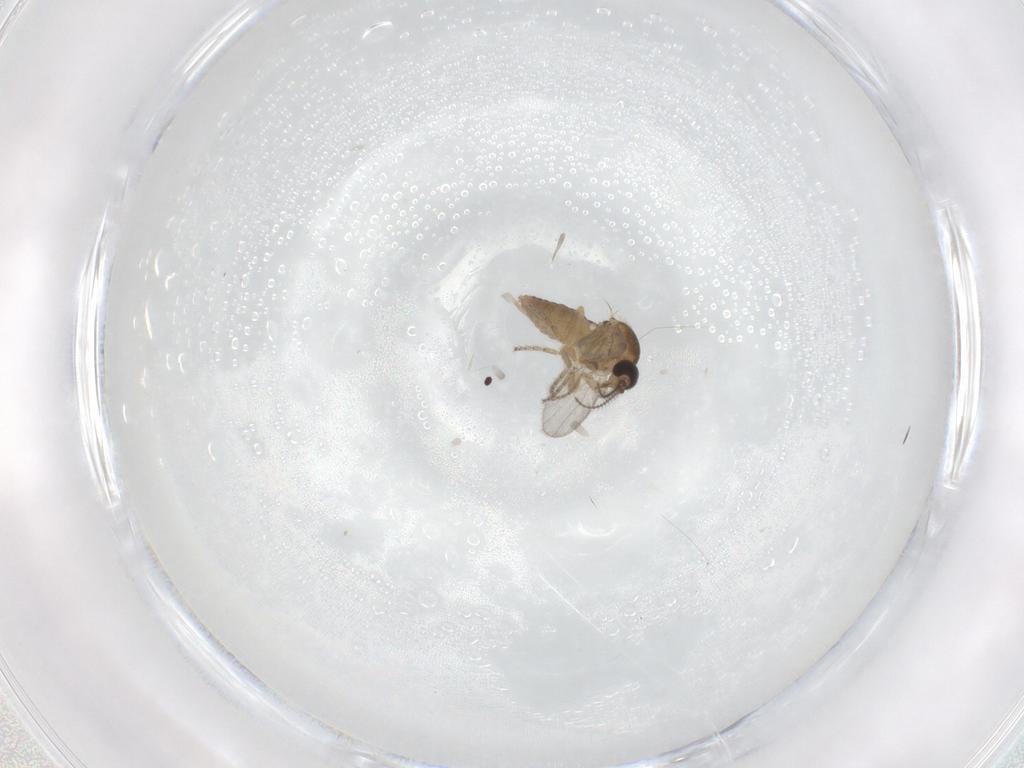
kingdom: Animalia
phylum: Arthropoda
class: Insecta
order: Diptera
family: Ceratopogonidae
